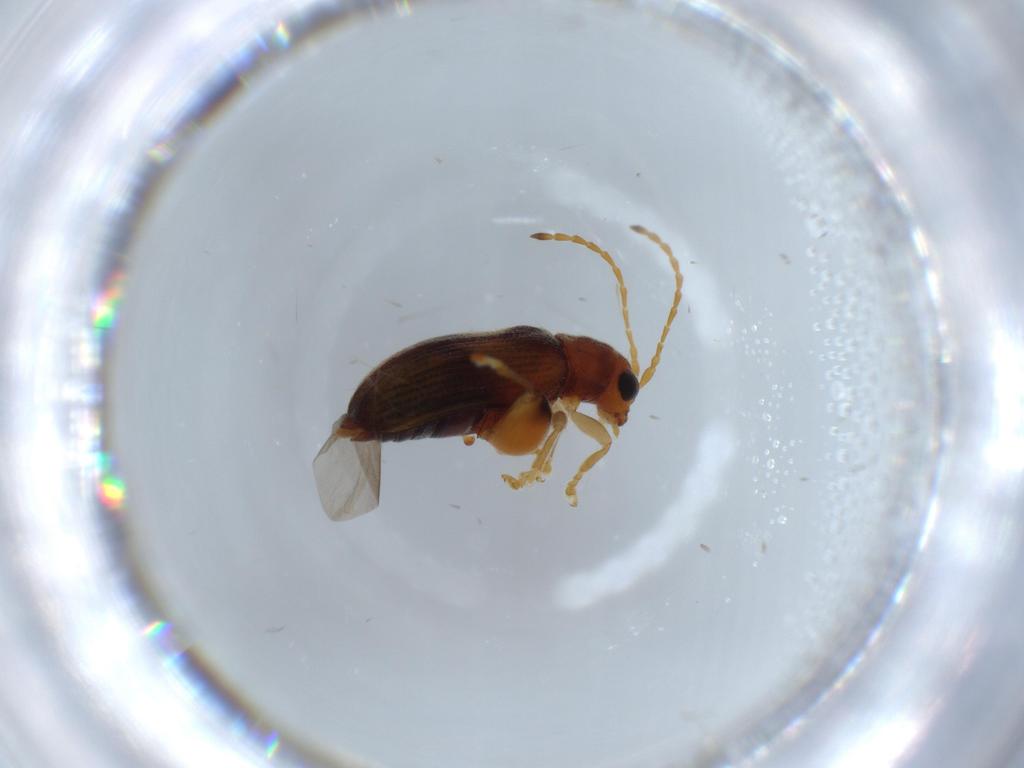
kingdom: Animalia
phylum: Arthropoda
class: Insecta
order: Coleoptera
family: Chrysomelidae
